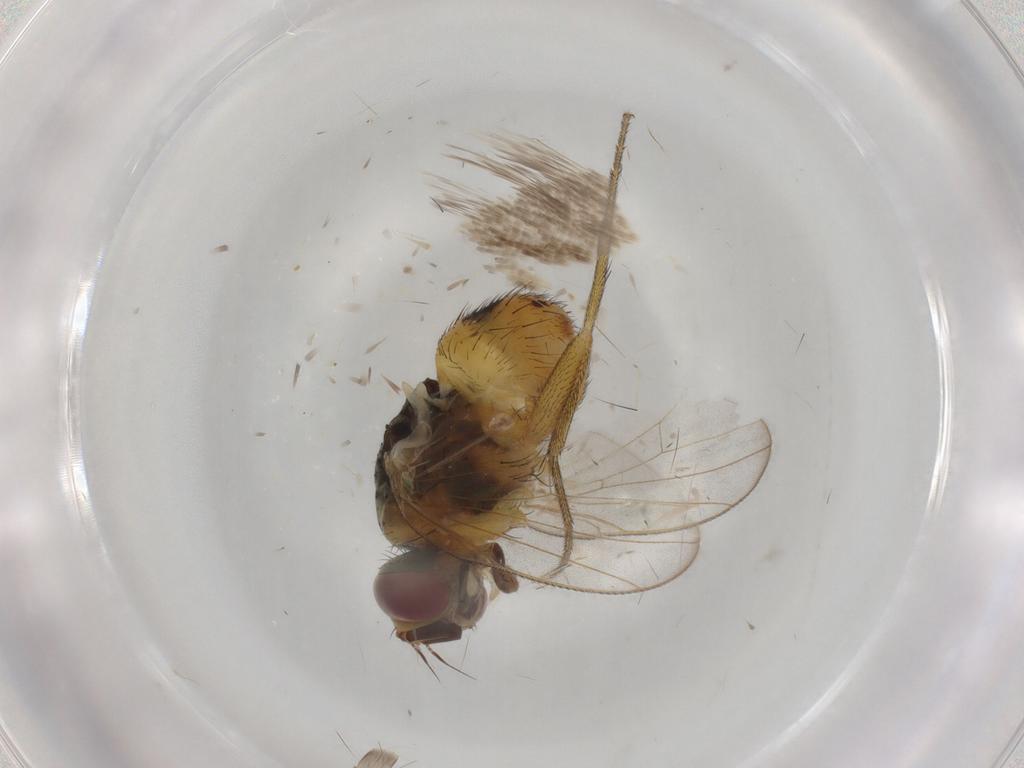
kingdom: Animalia
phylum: Arthropoda
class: Insecta
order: Diptera
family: Muscidae
